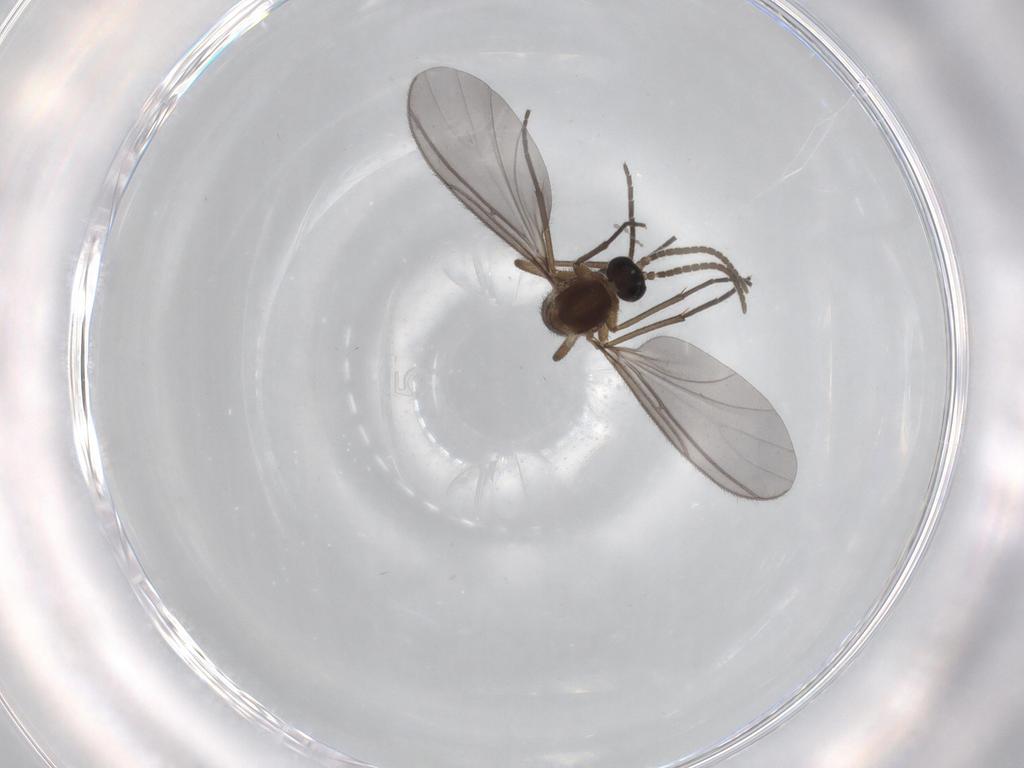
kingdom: Animalia
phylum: Arthropoda
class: Insecta
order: Diptera
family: Cecidomyiidae
